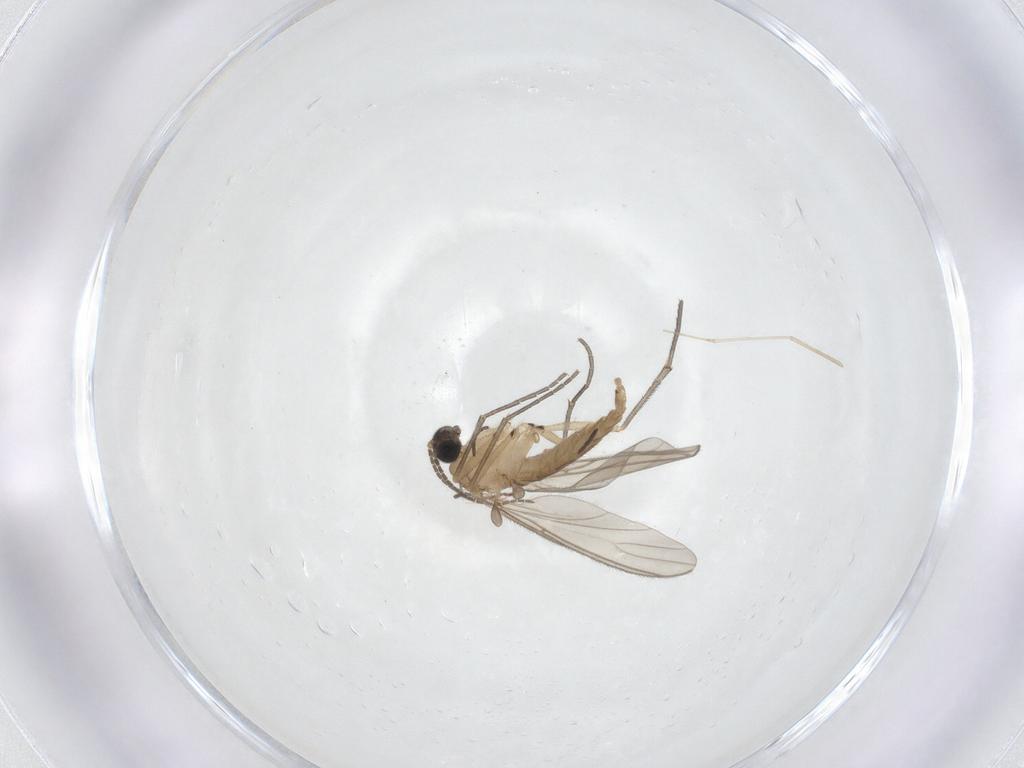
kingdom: Animalia
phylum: Arthropoda
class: Insecta
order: Diptera
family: Sciaridae
